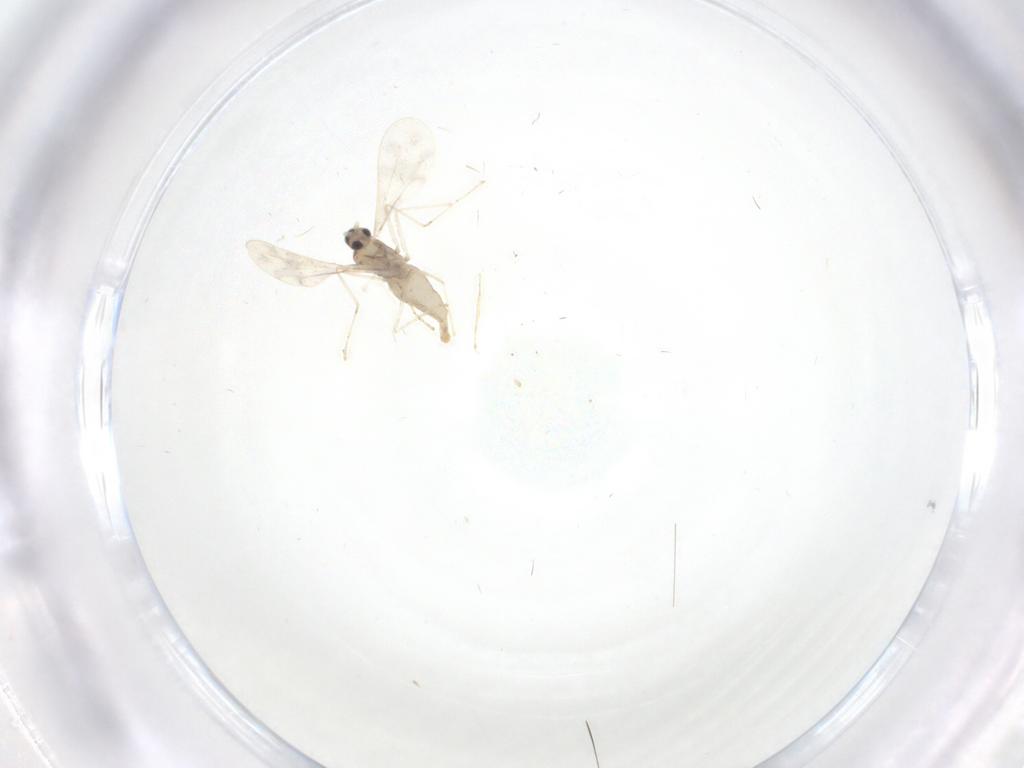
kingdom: Animalia
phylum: Arthropoda
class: Insecta
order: Diptera
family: Cecidomyiidae
